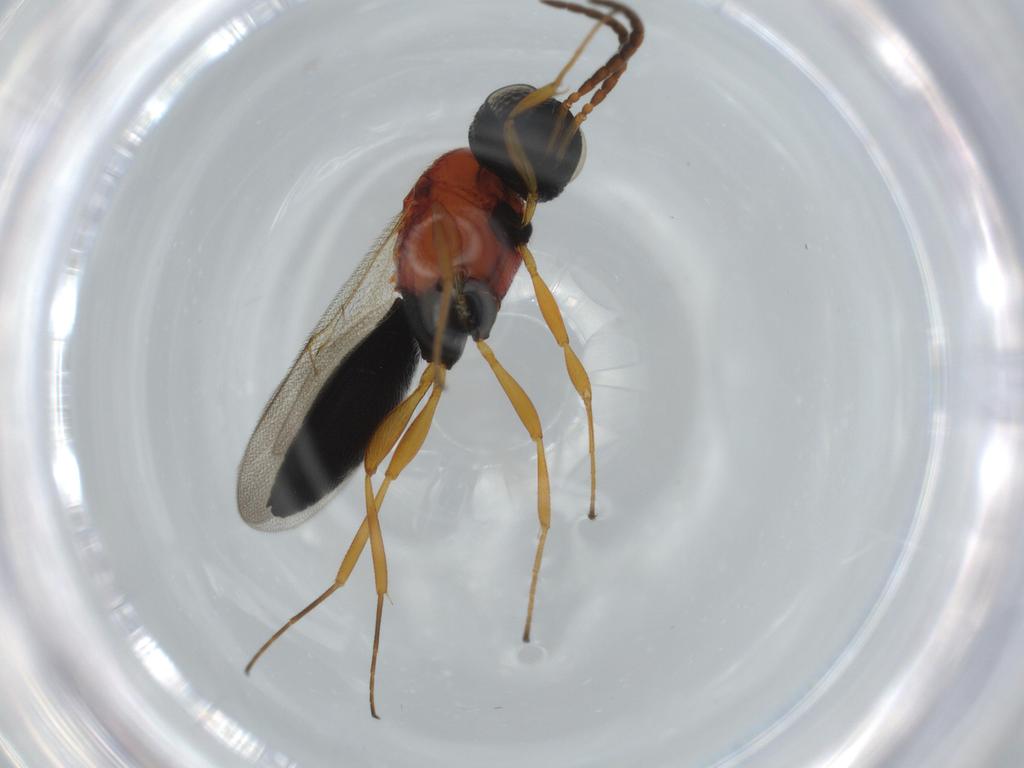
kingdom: Animalia
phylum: Arthropoda
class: Insecta
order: Hymenoptera
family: Scelionidae
